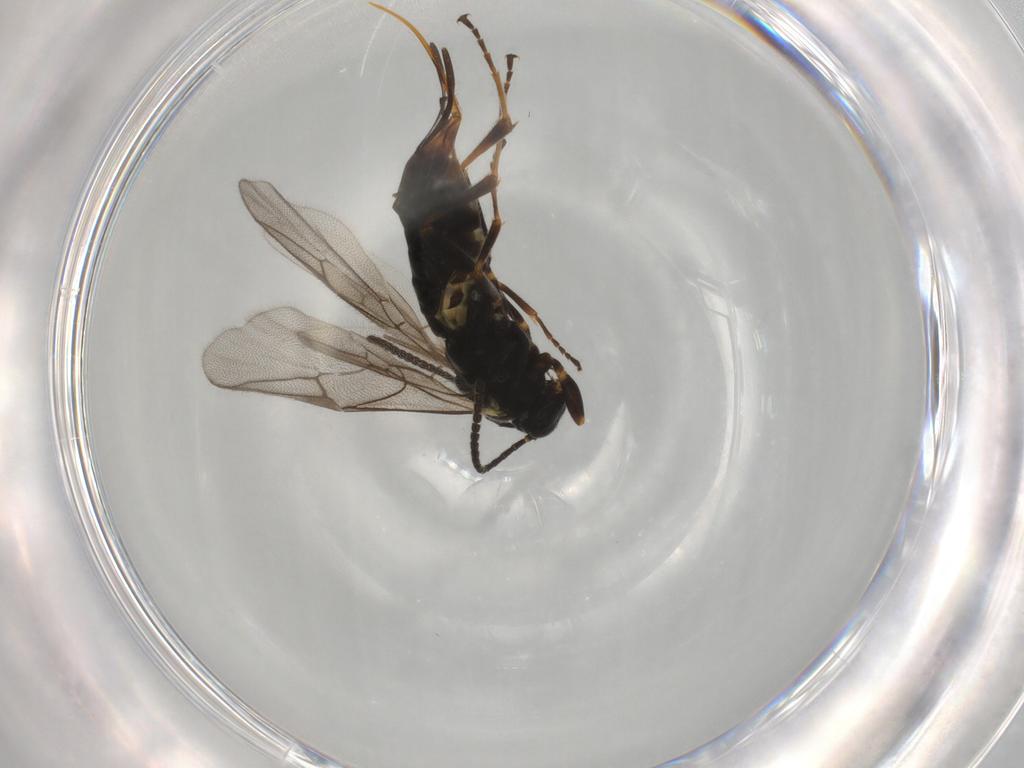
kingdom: Animalia
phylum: Arthropoda
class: Insecta
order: Hymenoptera
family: Ichneumonidae
